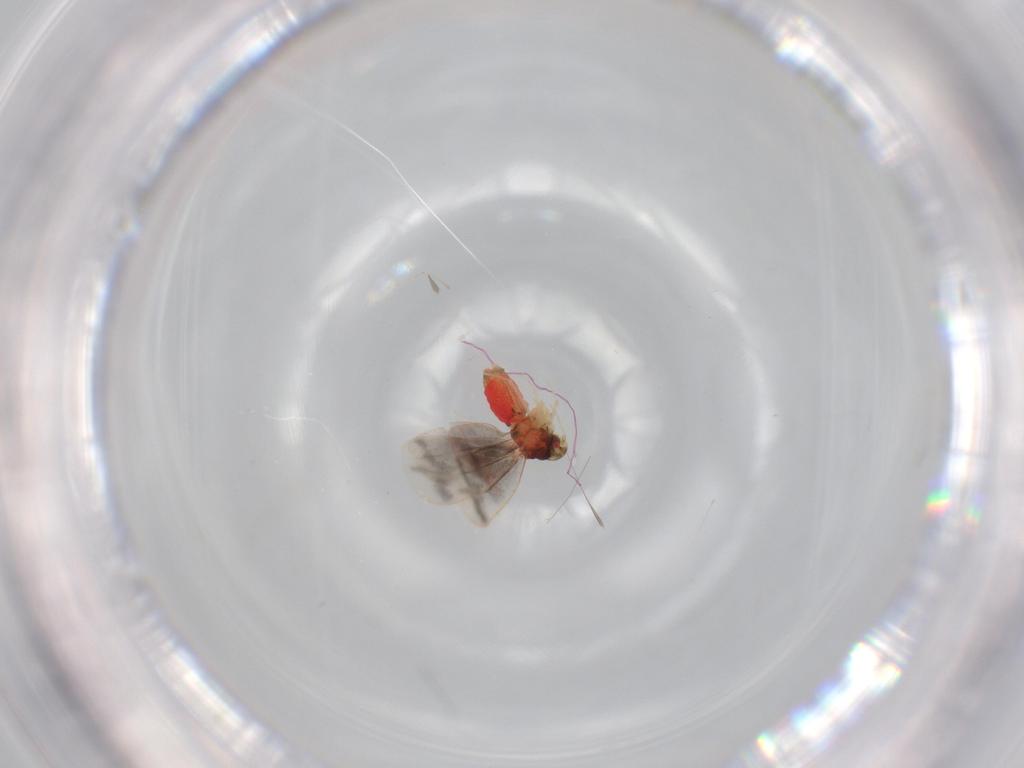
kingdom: Animalia
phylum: Arthropoda
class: Insecta
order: Hemiptera
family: Aleyrodidae
